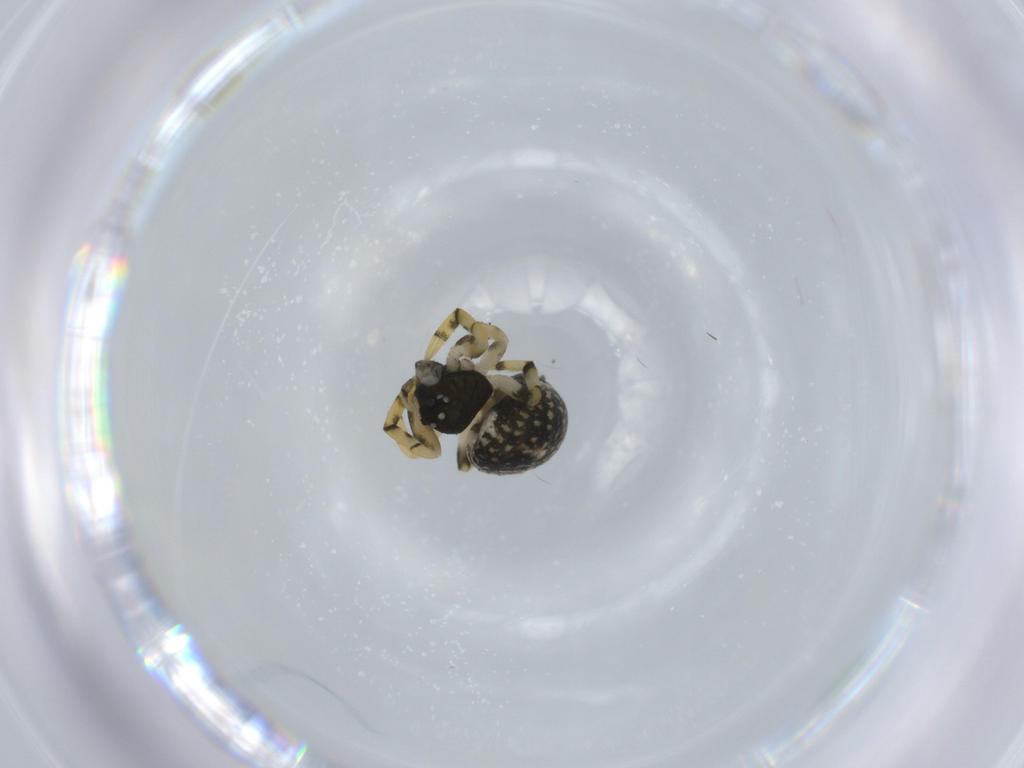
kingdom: Animalia
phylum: Arthropoda
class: Arachnida
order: Araneae
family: Theridiidae
